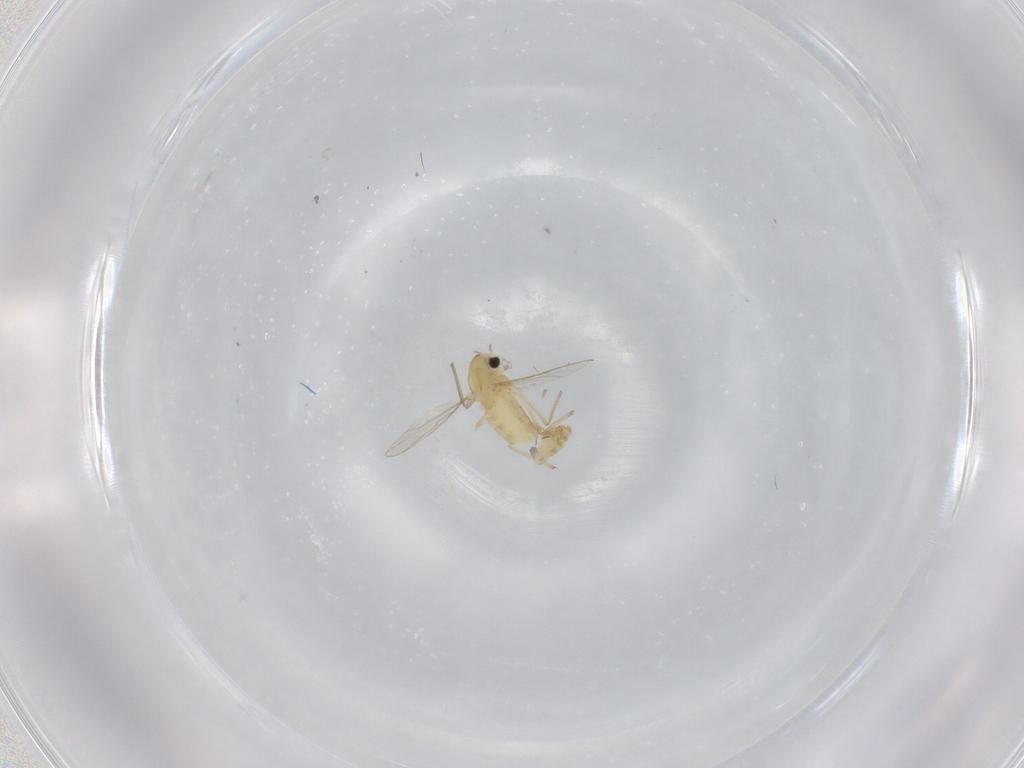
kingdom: Animalia
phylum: Arthropoda
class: Insecta
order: Diptera
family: Chironomidae
